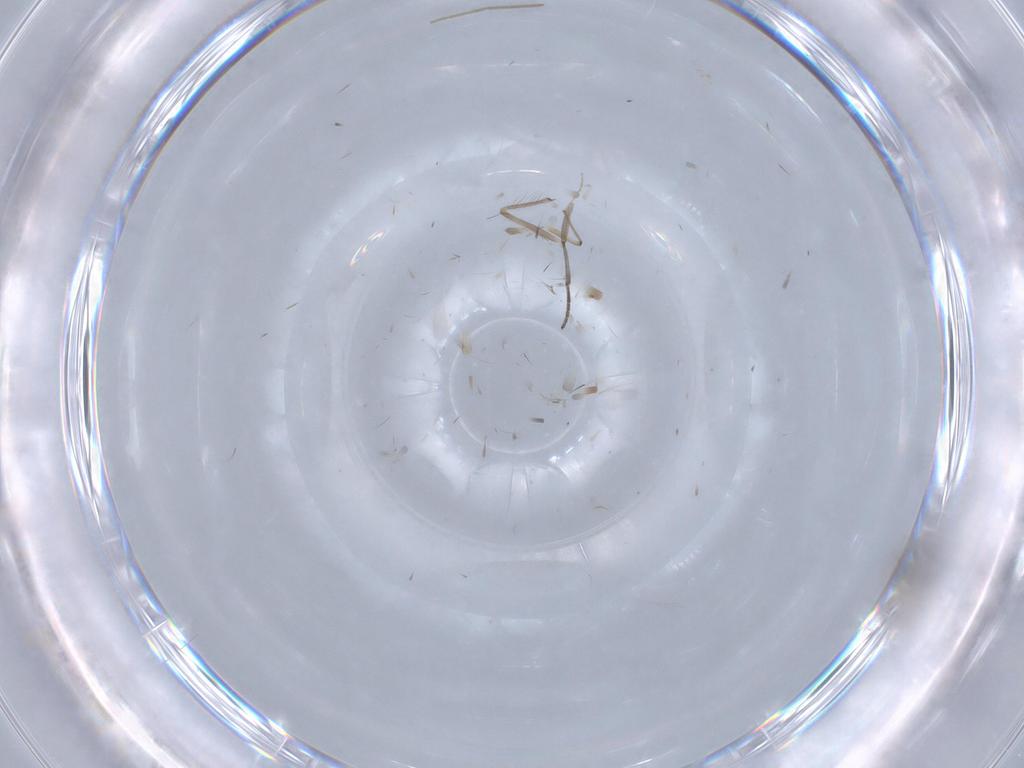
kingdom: Animalia
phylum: Arthropoda
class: Insecta
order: Diptera
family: Cecidomyiidae
